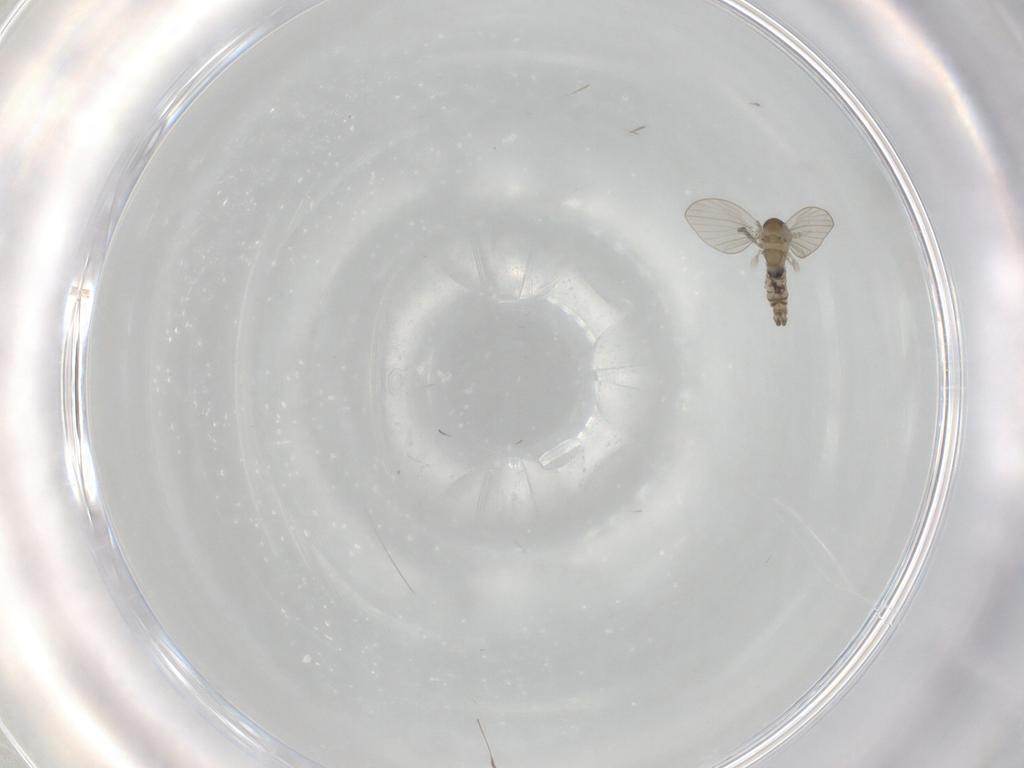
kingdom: Animalia
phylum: Arthropoda
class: Insecta
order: Diptera
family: Psychodidae
